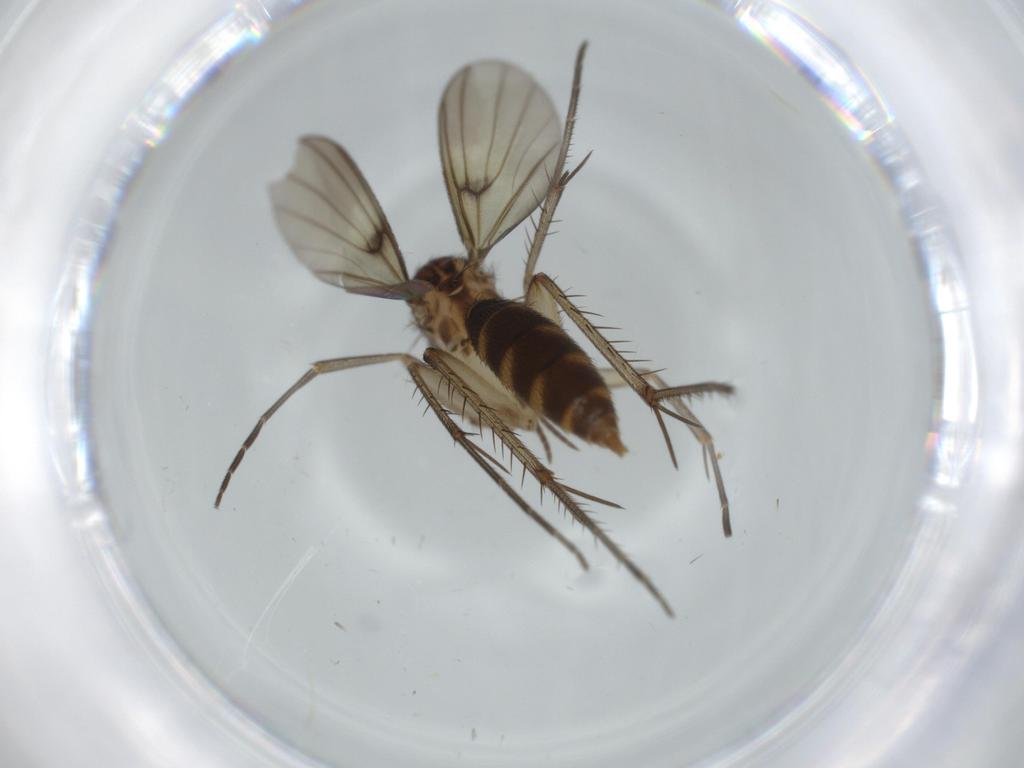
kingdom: Animalia
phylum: Arthropoda
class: Insecta
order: Diptera
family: Mycetophilidae
